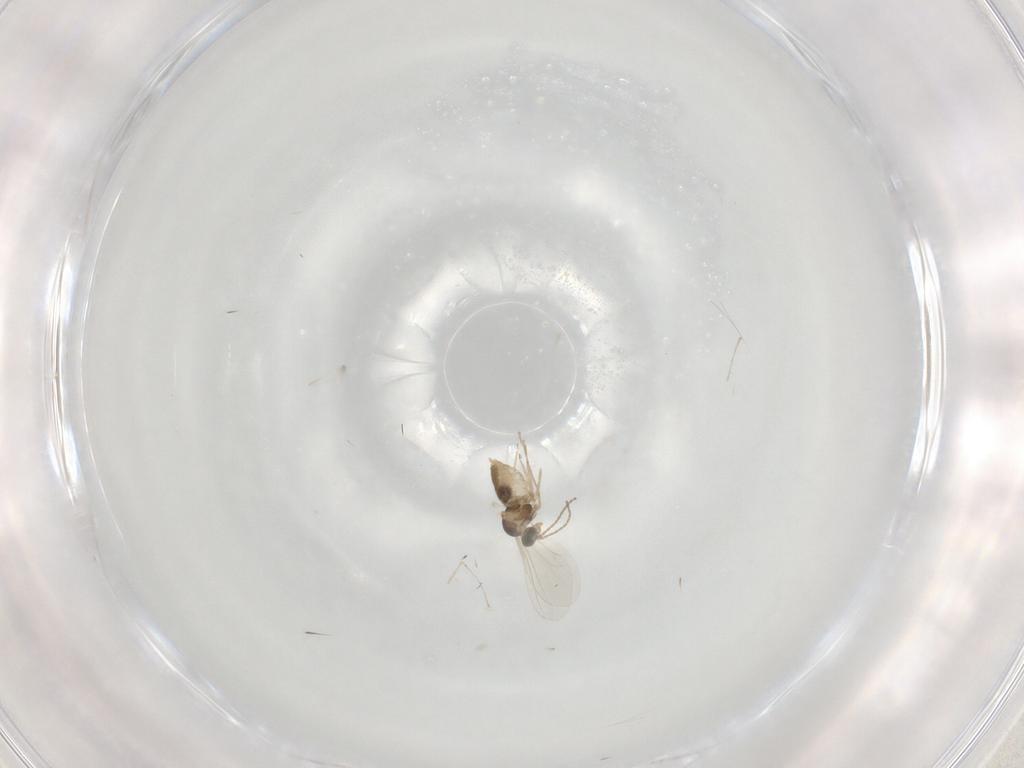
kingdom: Animalia
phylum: Arthropoda
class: Insecta
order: Diptera
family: Cecidomyiidae
